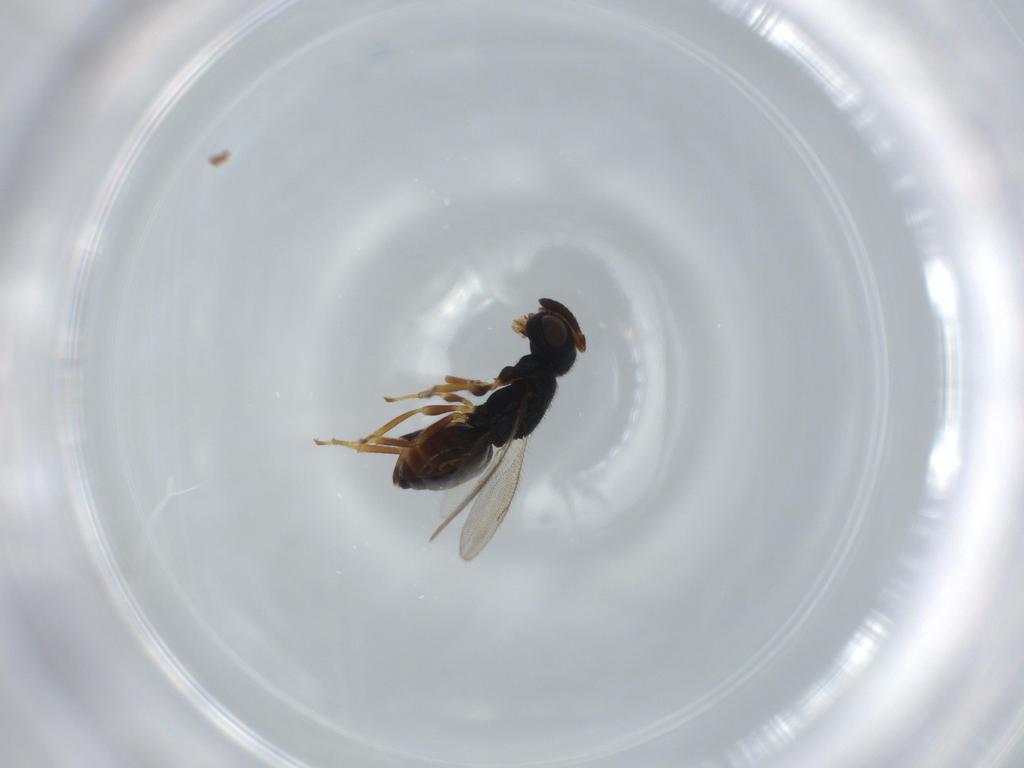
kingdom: Animalia
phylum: Arthropoda
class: Insecta
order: Hymenoptera
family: Pteromalidae
